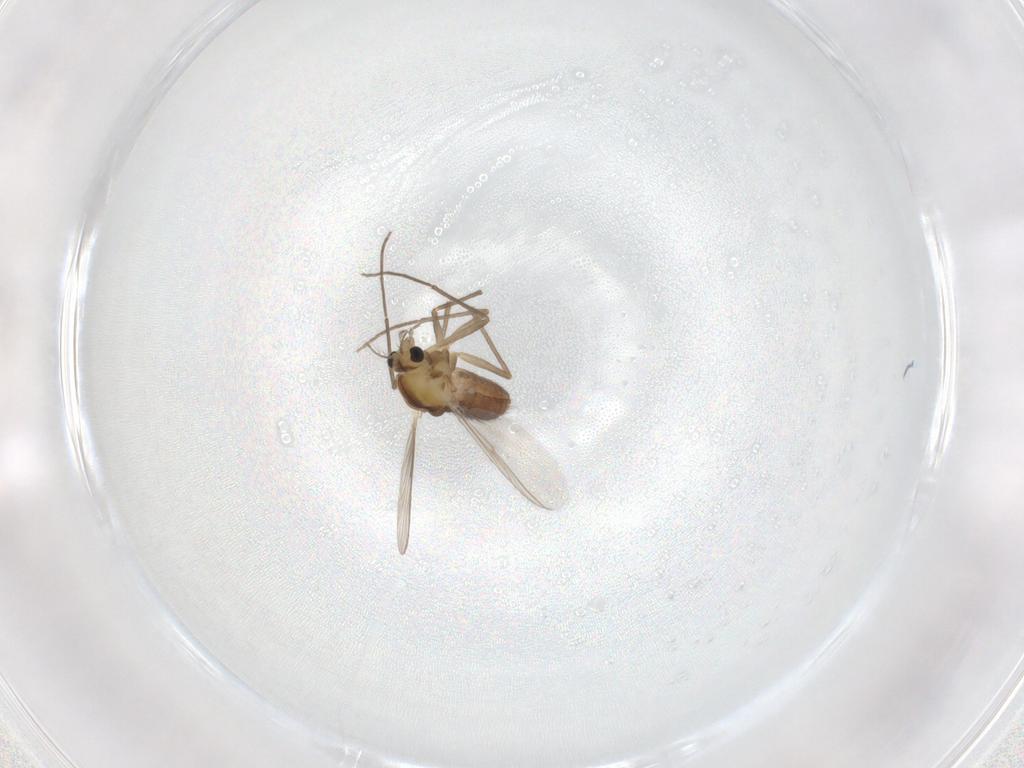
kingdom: Animalia
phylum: Arthropoda
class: Insecta
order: Diptera
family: Chironomidae
